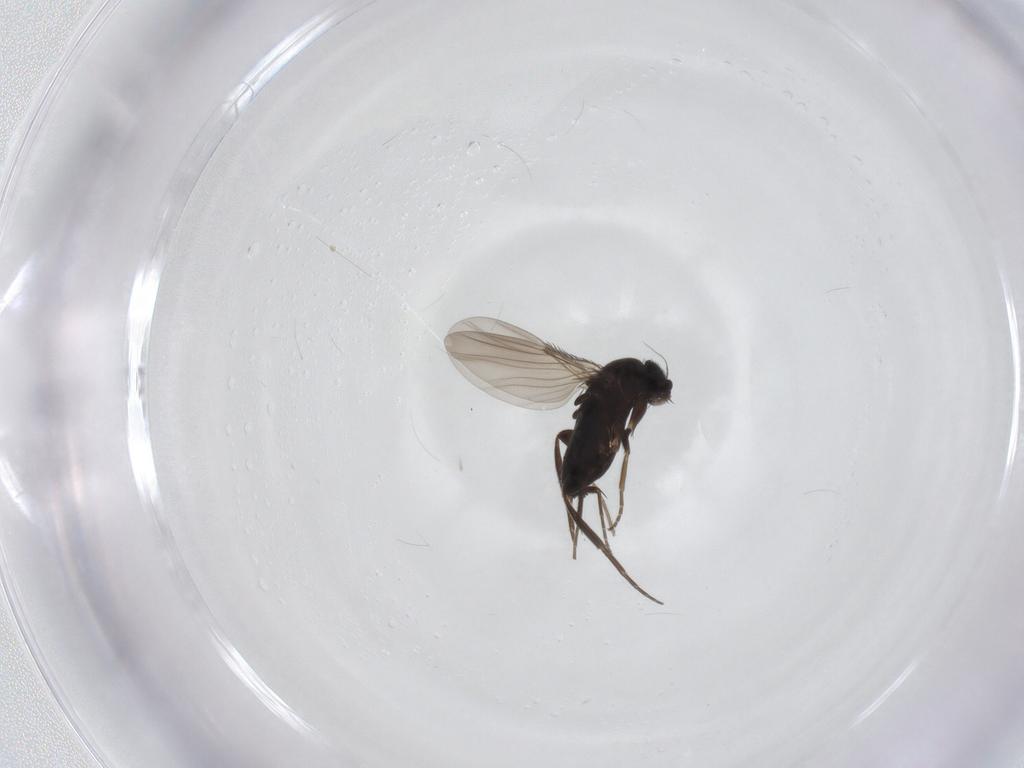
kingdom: Animalia
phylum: Arthropoda
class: Insecta
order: Diptera
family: Phoridae
